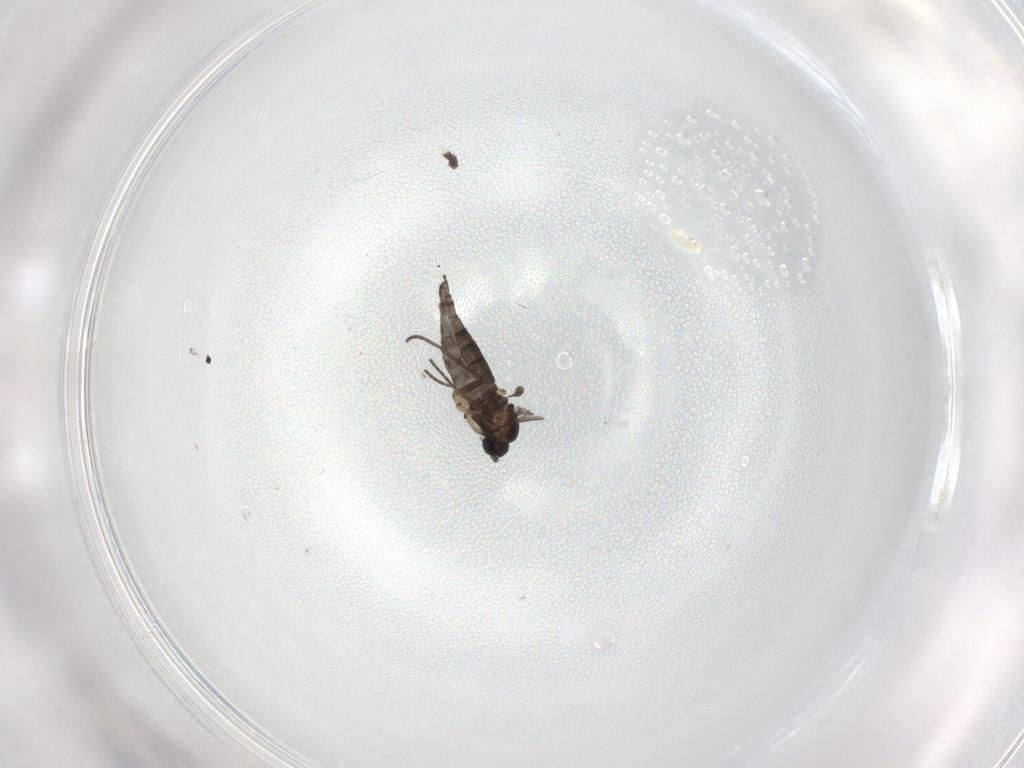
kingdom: Animalia
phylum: Arthropoda
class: Insecta
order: Diptera
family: Sciaridae
